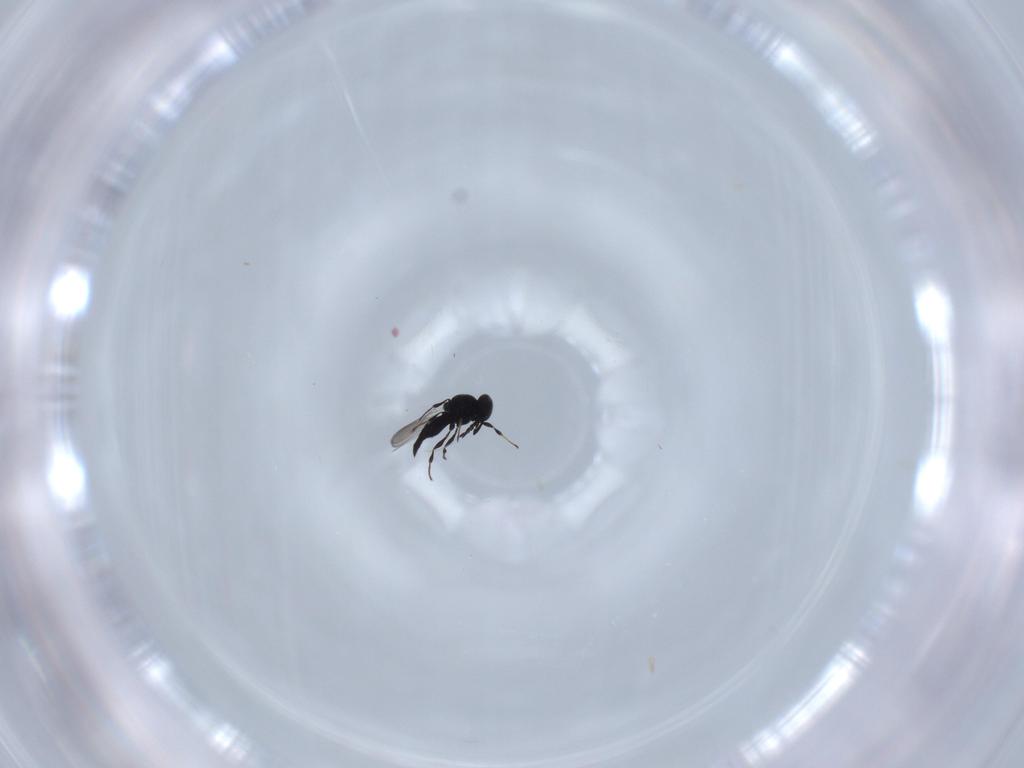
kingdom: Animalia
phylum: Arthropoda
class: Insecta
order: Hymenoptera
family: Platygastridae
